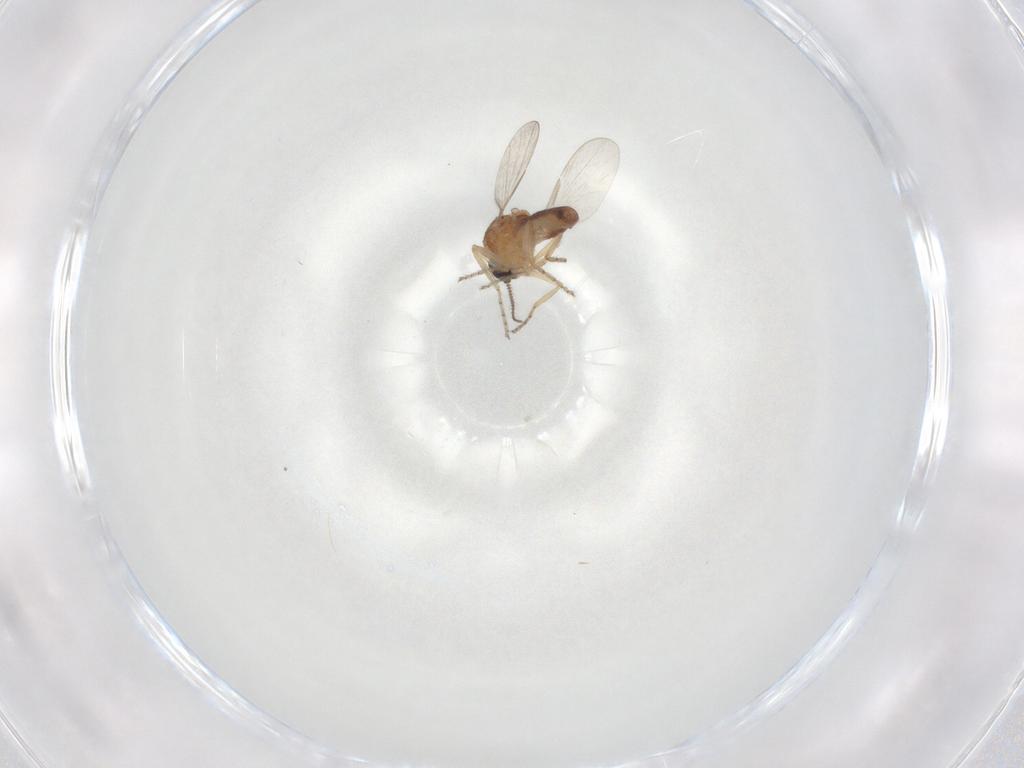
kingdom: Animalia
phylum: Arthropoda
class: Insecta
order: Diptera
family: Ceratopogonidae
